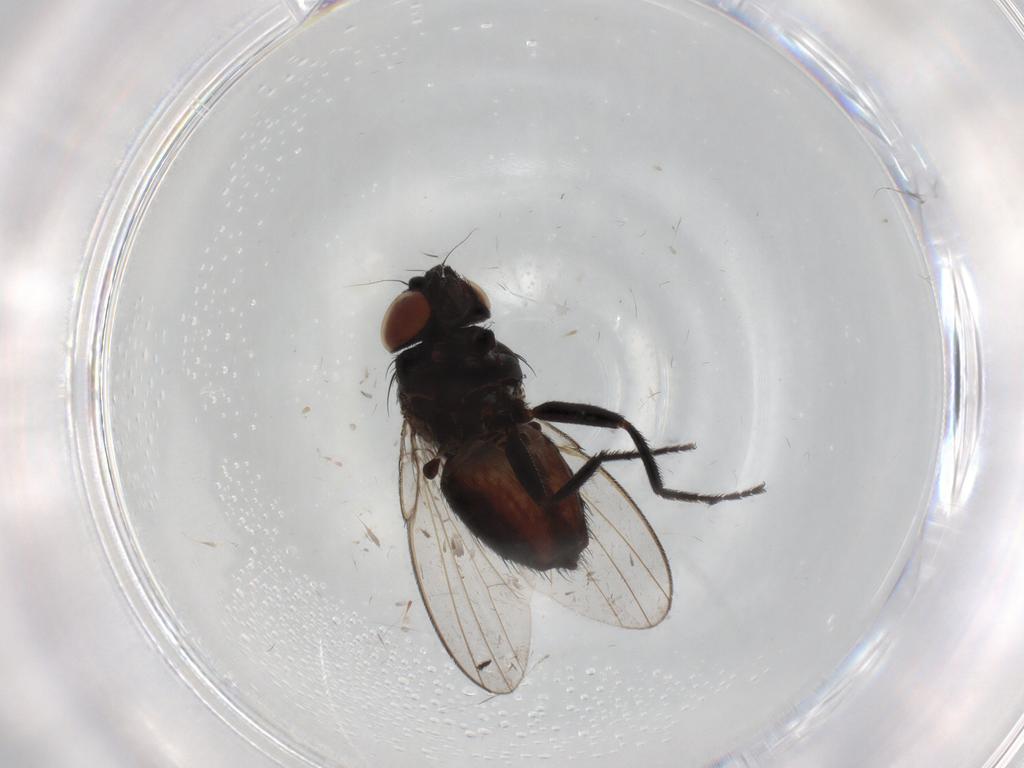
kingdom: Animalia
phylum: Arthropoda
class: Insecta
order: Diptera
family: Milichiidae
